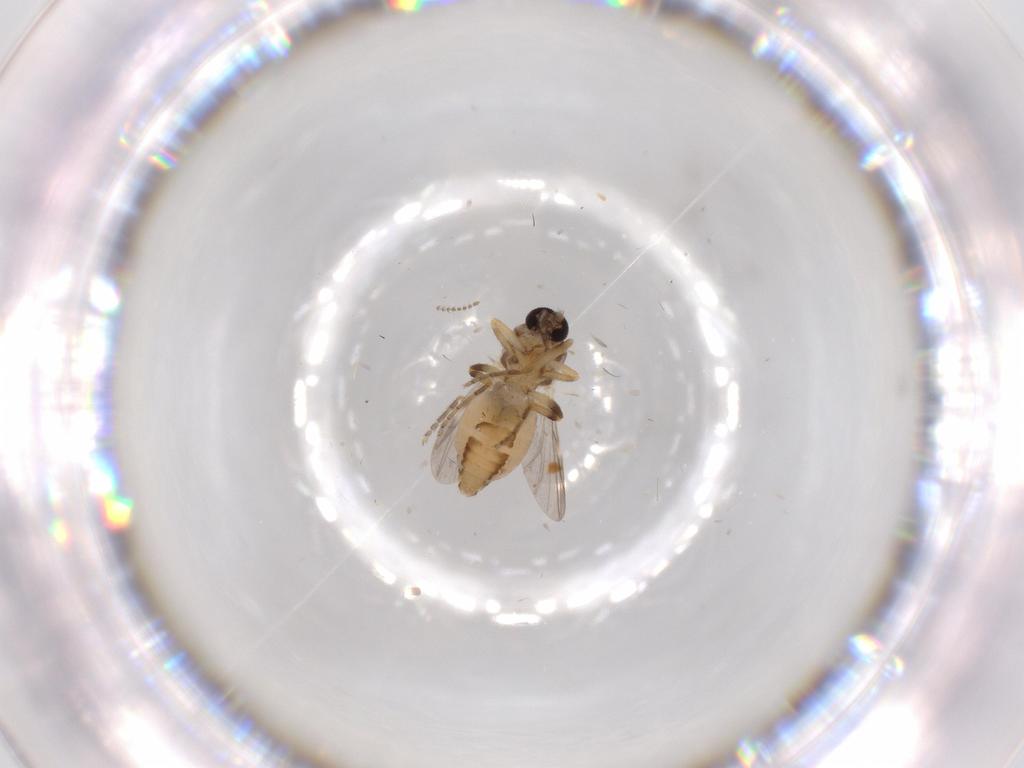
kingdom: Animalia
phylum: Arthropoda
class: Insecta
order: Diptera
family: Ceratopogonidae
